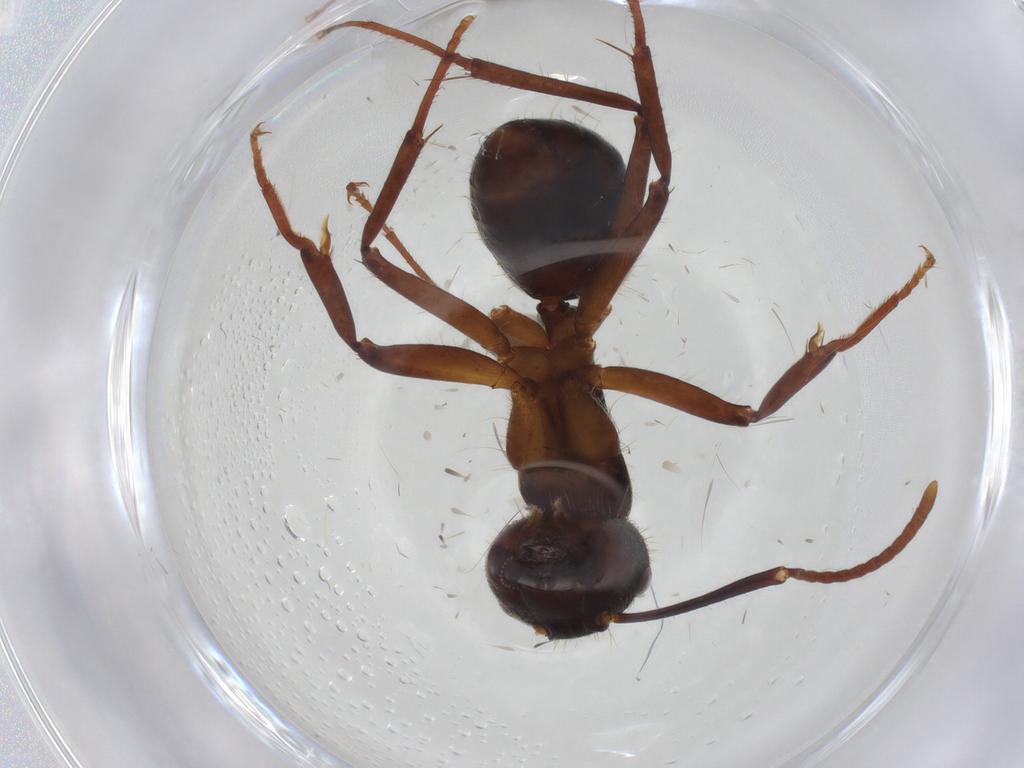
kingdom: Animalia
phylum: Arthropoda
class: Insecta
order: Hymenoptera
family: Formicidae
